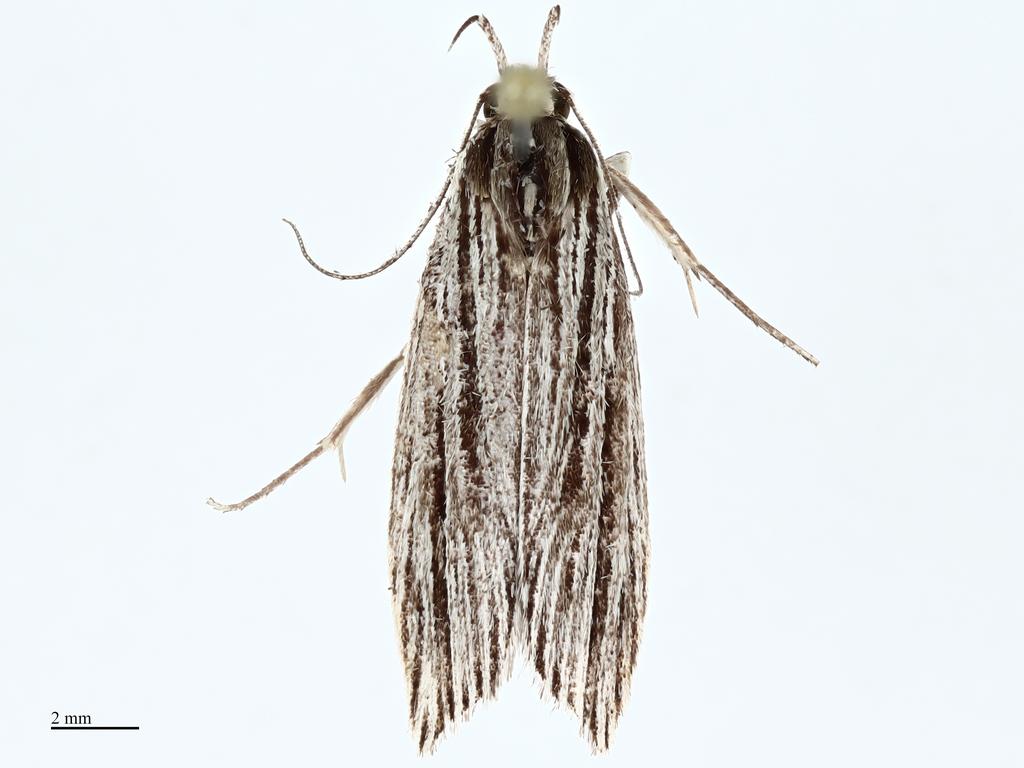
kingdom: Animalia
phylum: Arthropoda
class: Insecta
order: Lepidoptera
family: Xyloryctidae
